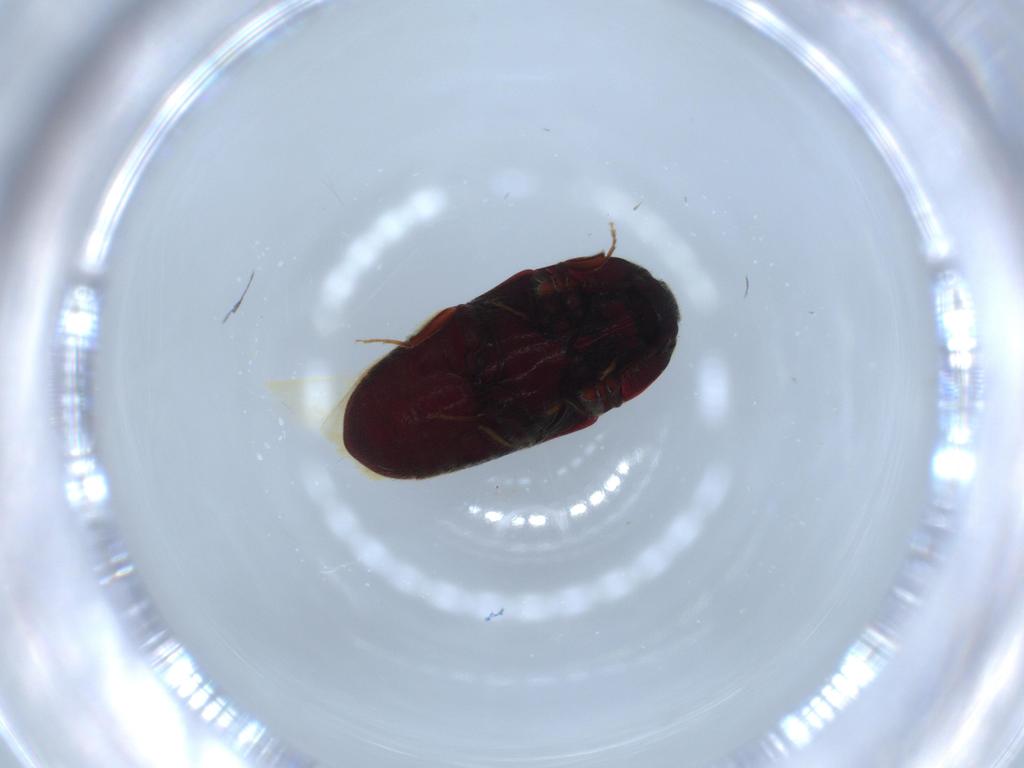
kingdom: Animalia
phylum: Arthropoda
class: Insecta
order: Coleoptera
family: Throscidae
